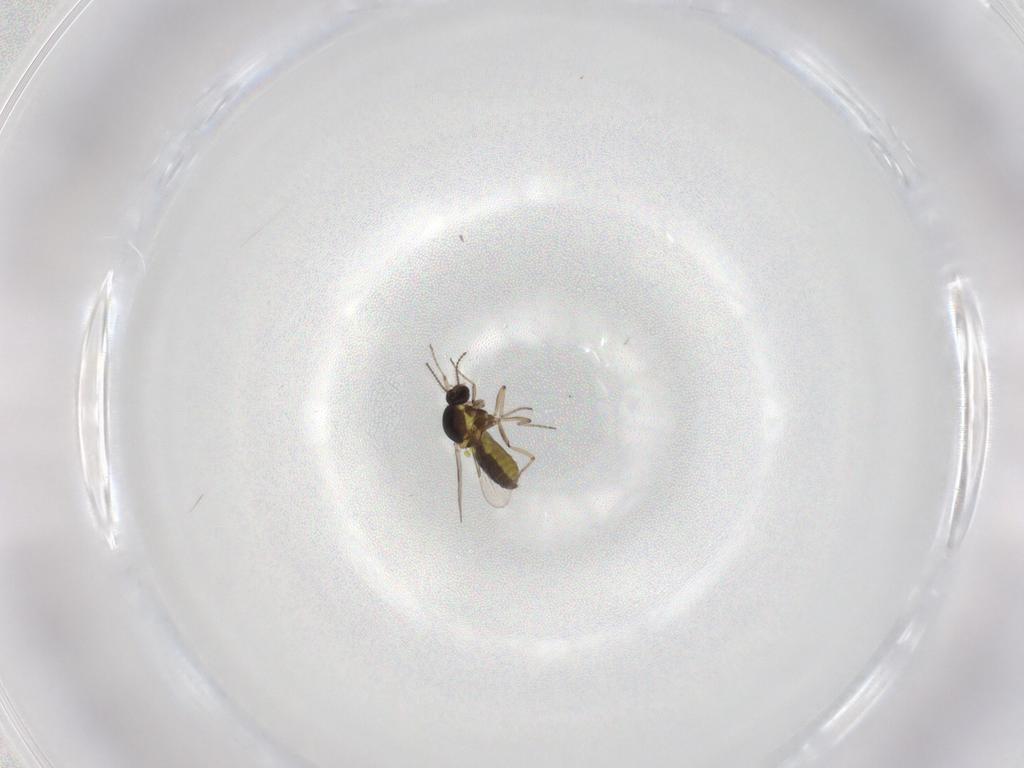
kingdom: Animalia
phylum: Arthropoda
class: Insecta
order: Diptera
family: Ceratopogonidae
